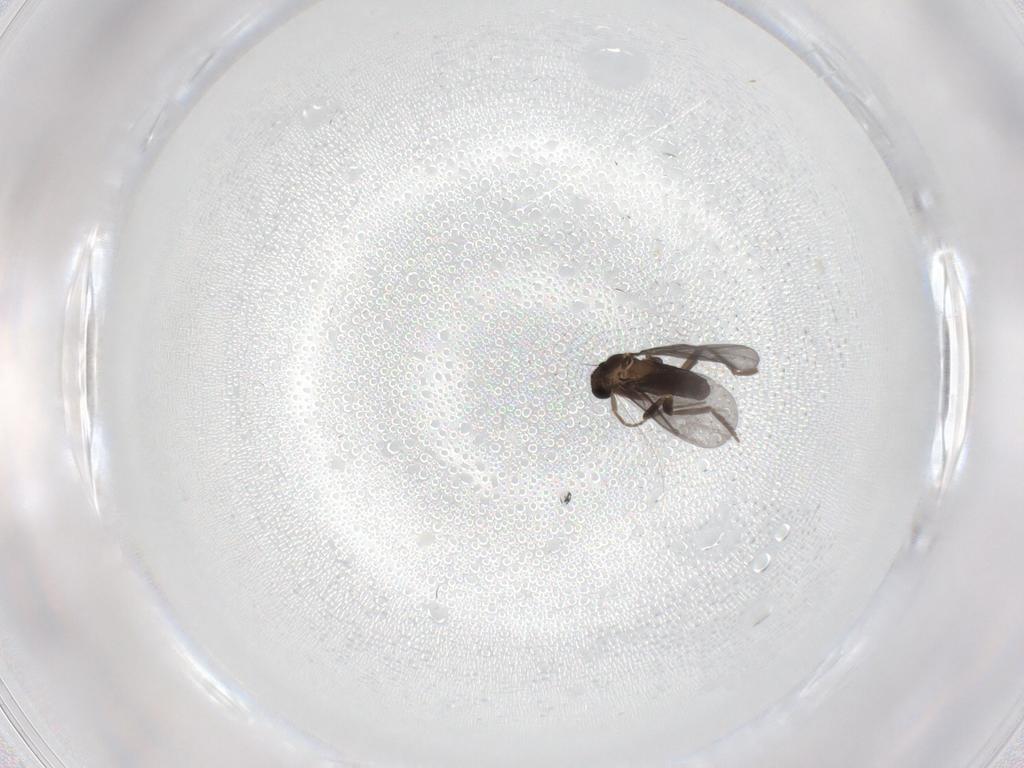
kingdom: Animalia
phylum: Arthropoda
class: Insecta
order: Diptera
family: Phoridae
